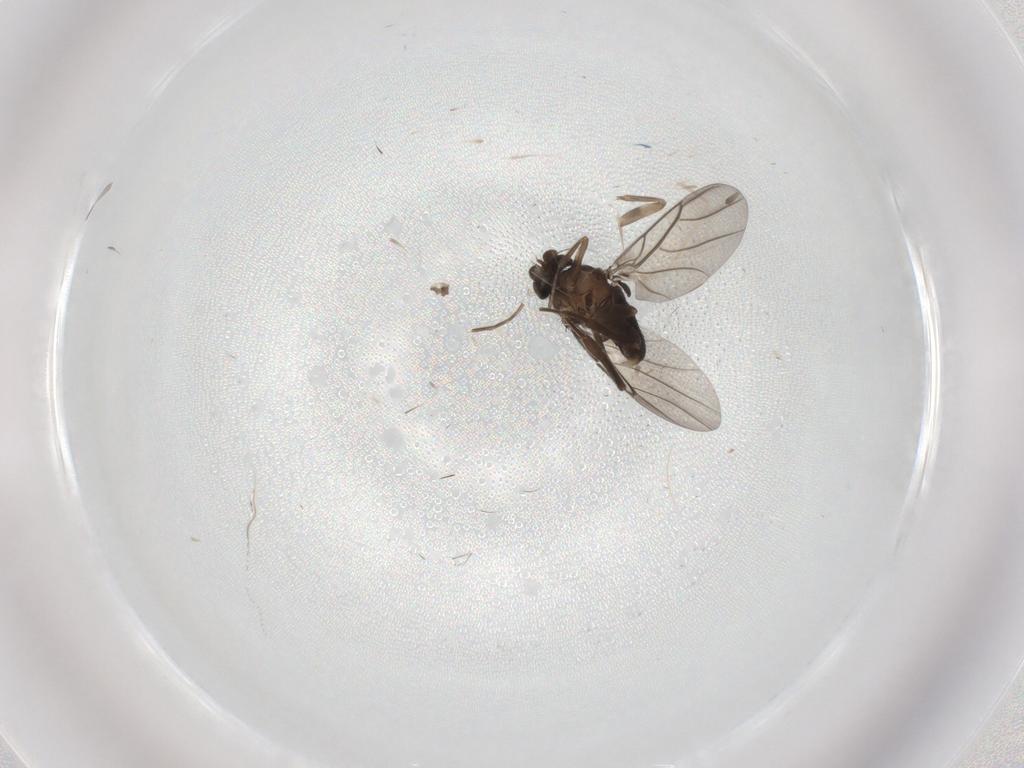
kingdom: Animalia
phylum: Arthropoda
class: Insecta
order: Diptera
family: Cecidomyiidae
